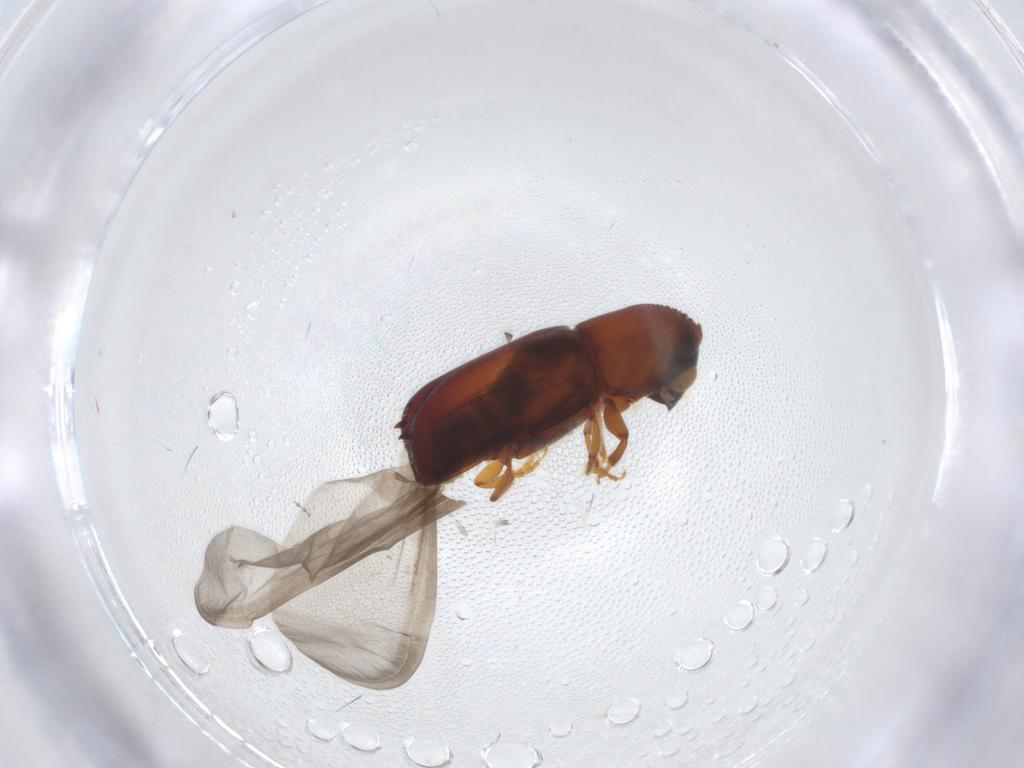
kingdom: Animalia
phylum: Arthropoda
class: Insecta
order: Coleoptera
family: Curculionidae
